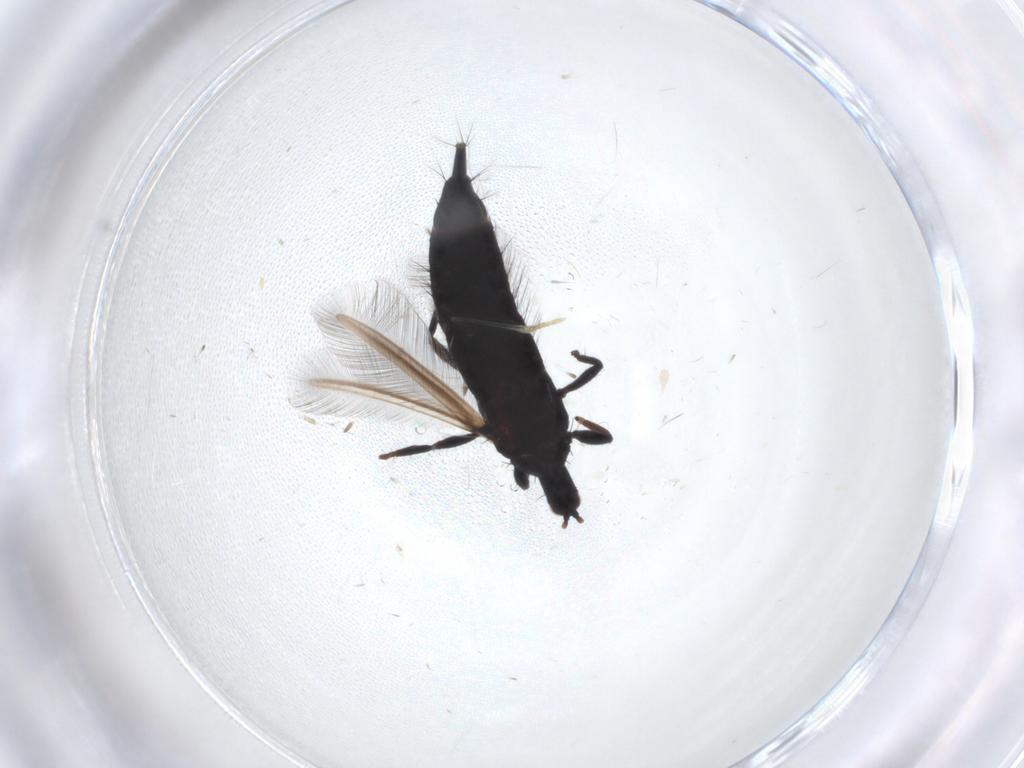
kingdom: Animalia
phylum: Arthropoda
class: Insecta
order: Thysanoptera
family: Phlaeothripidae
